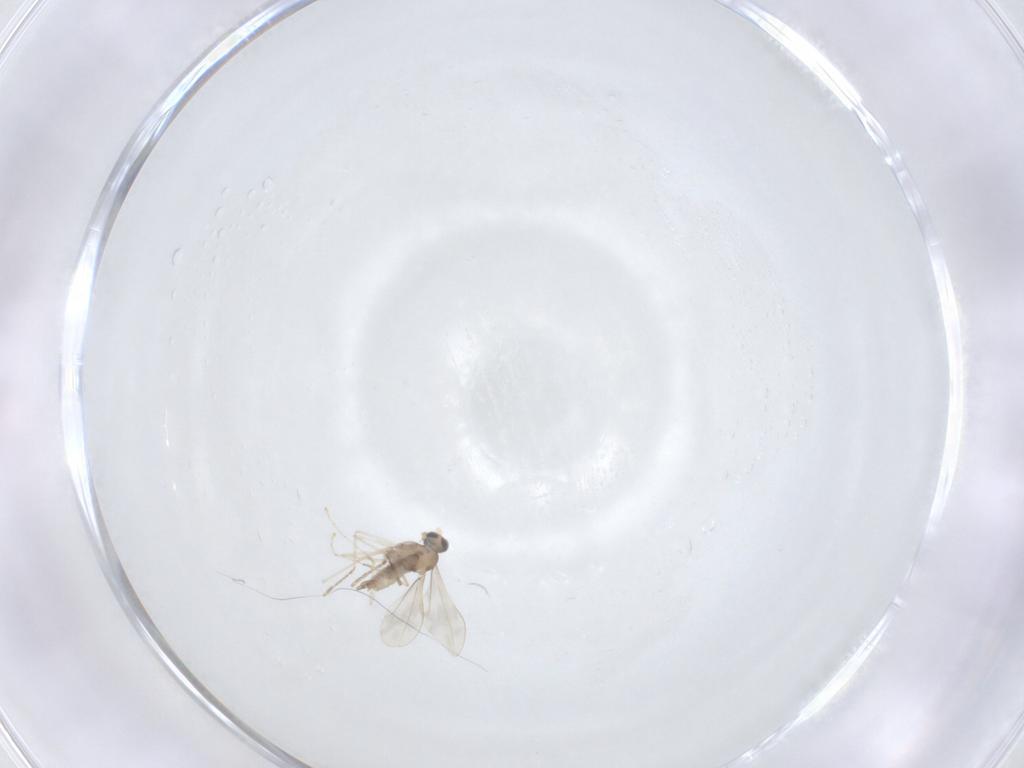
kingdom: Animalia
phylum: Arthropoda
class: Insecta
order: Diptera
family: Cecidomyiidae
